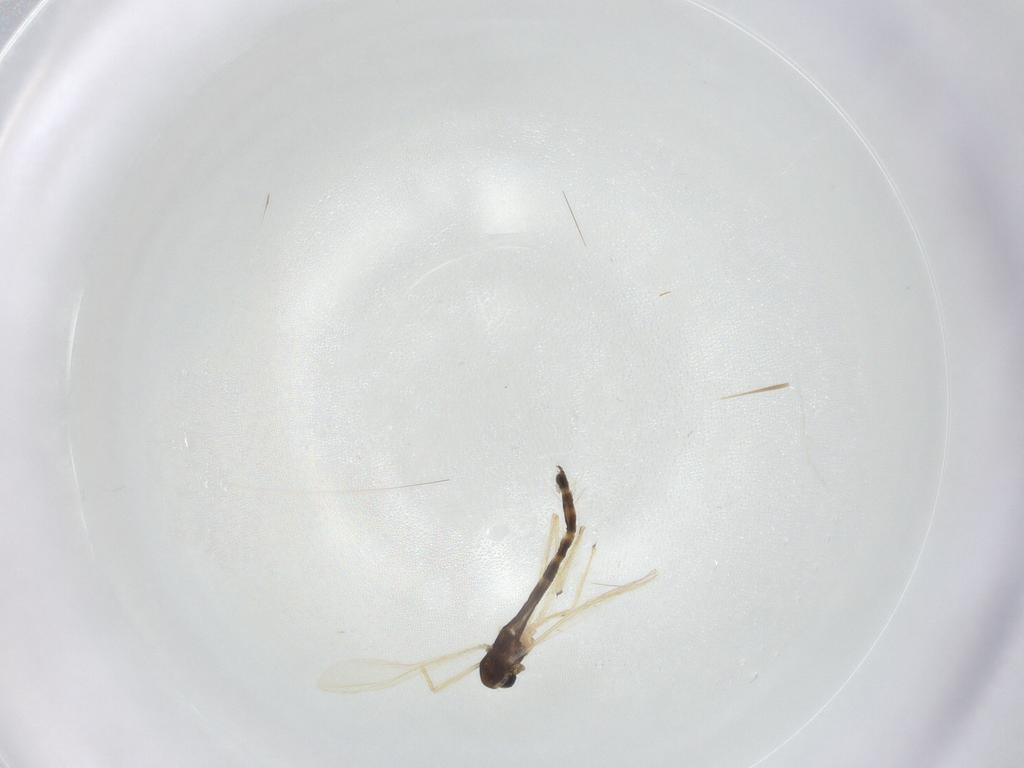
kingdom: Animalia
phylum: Arthropoda
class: Insecta
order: Diptera
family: Chironomidae
